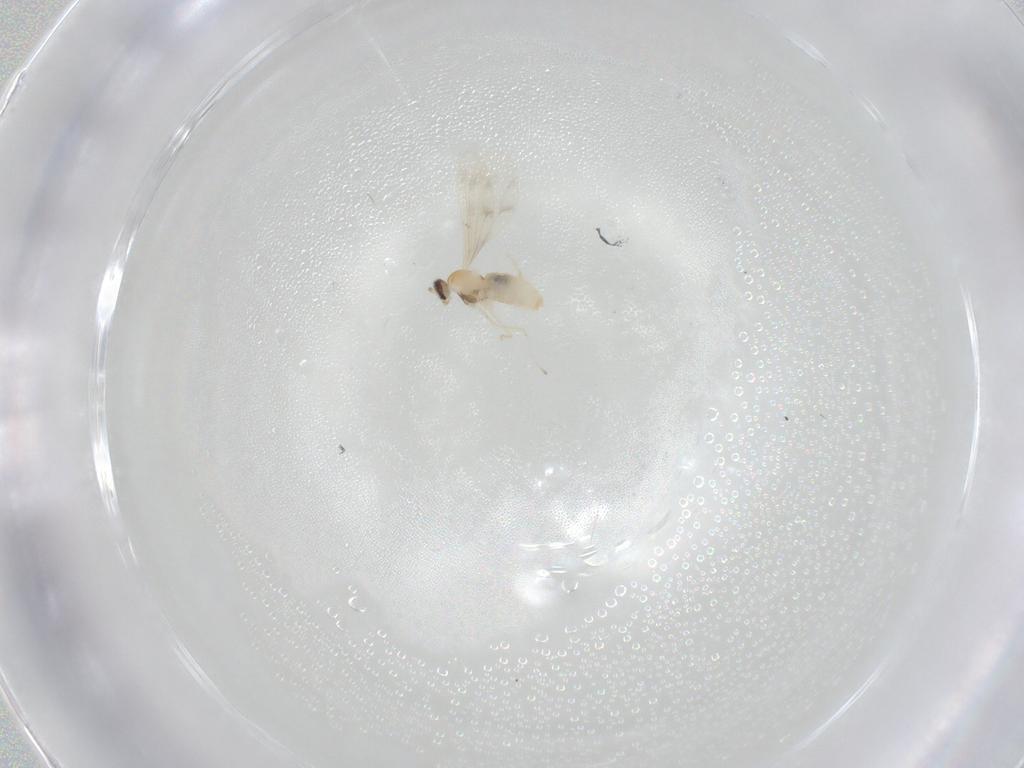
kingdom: Animalia
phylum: Arthropoda
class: Insecta
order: Diptera
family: Cecidomyiidae
